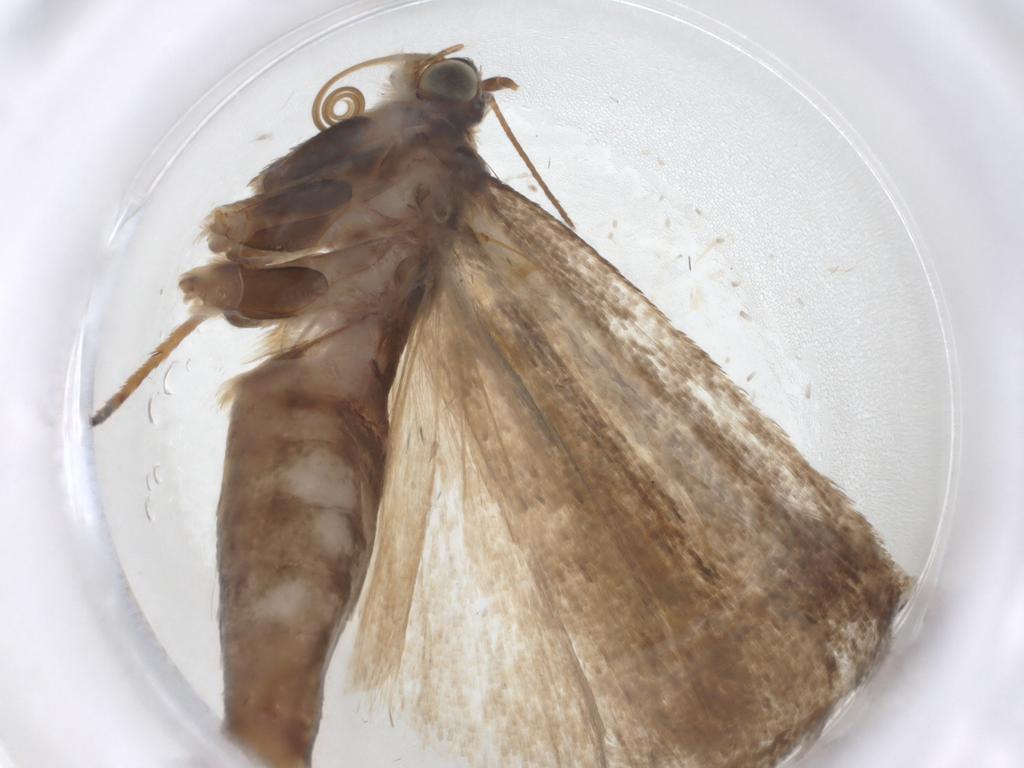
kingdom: Animalia
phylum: Arthropoda
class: Insecta
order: Lepidoptera
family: Crambidae
